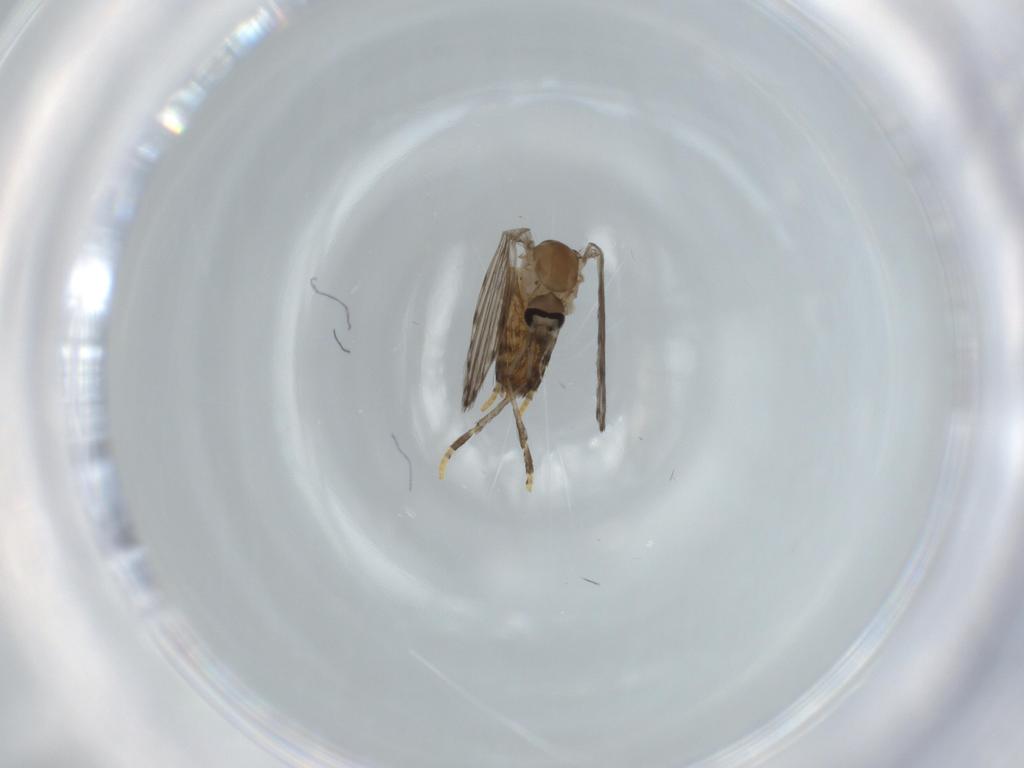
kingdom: Animalia
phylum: Arthropoda
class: Insecta
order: Diptera
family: Psychodidae
